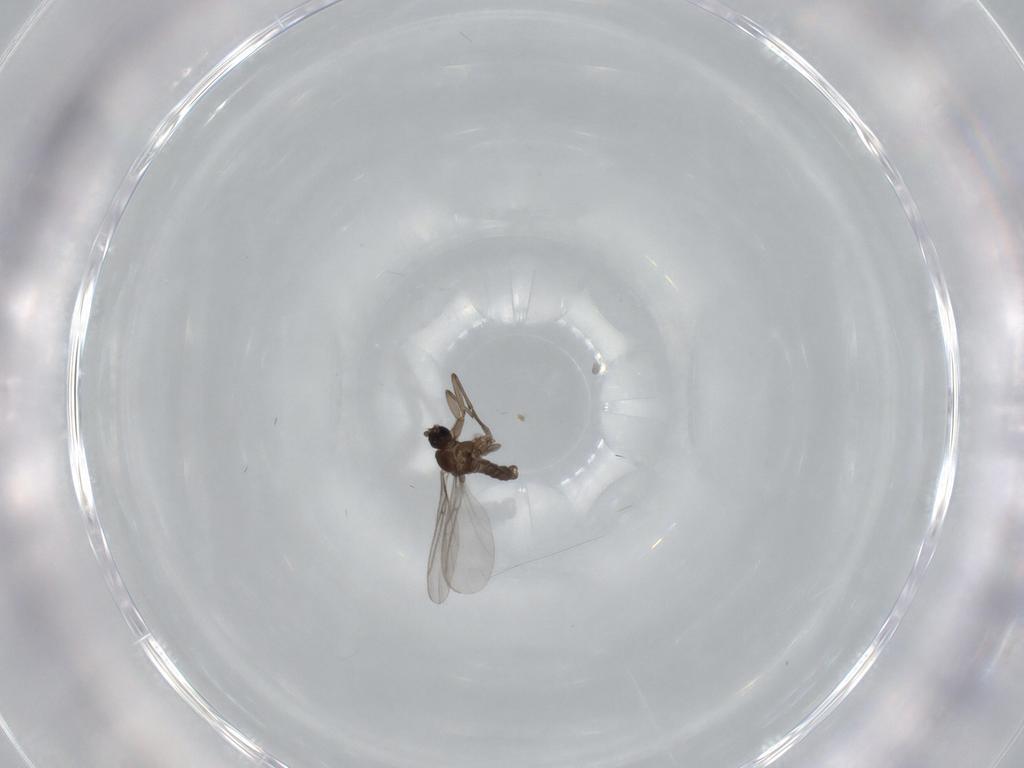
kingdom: Animalia
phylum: Arthropoda
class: Insecta
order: Diptera
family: Sciaridae
